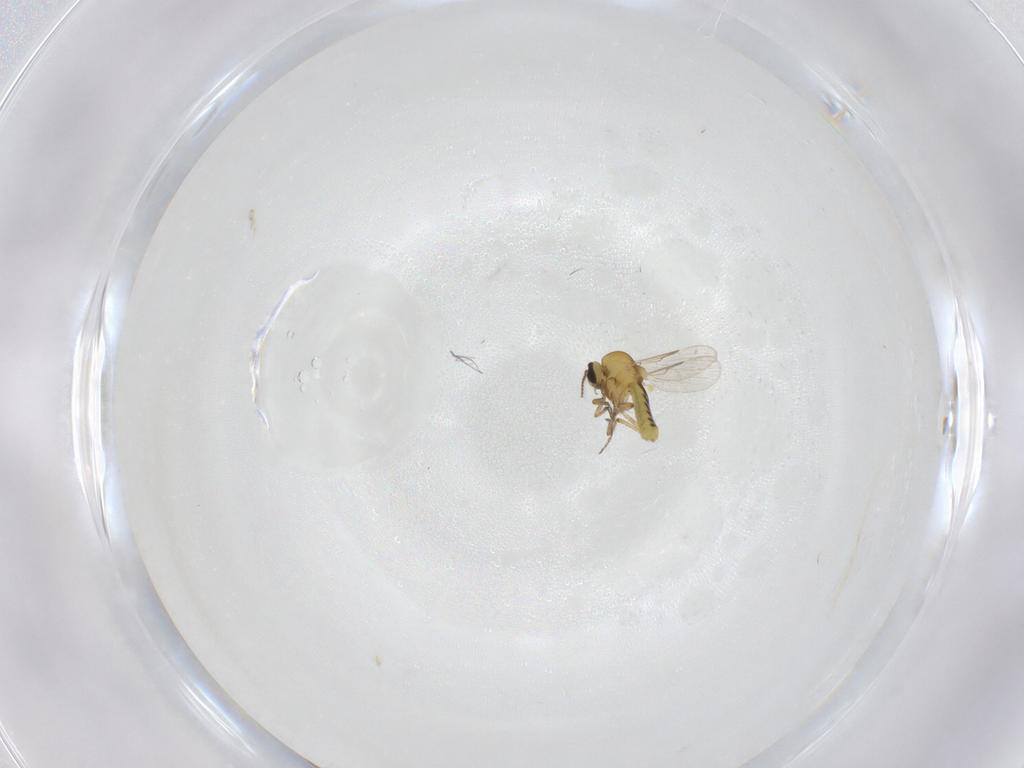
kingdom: Animalia
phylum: Arthropoda
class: Insecta
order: Diptera
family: Ceratopogonidae
